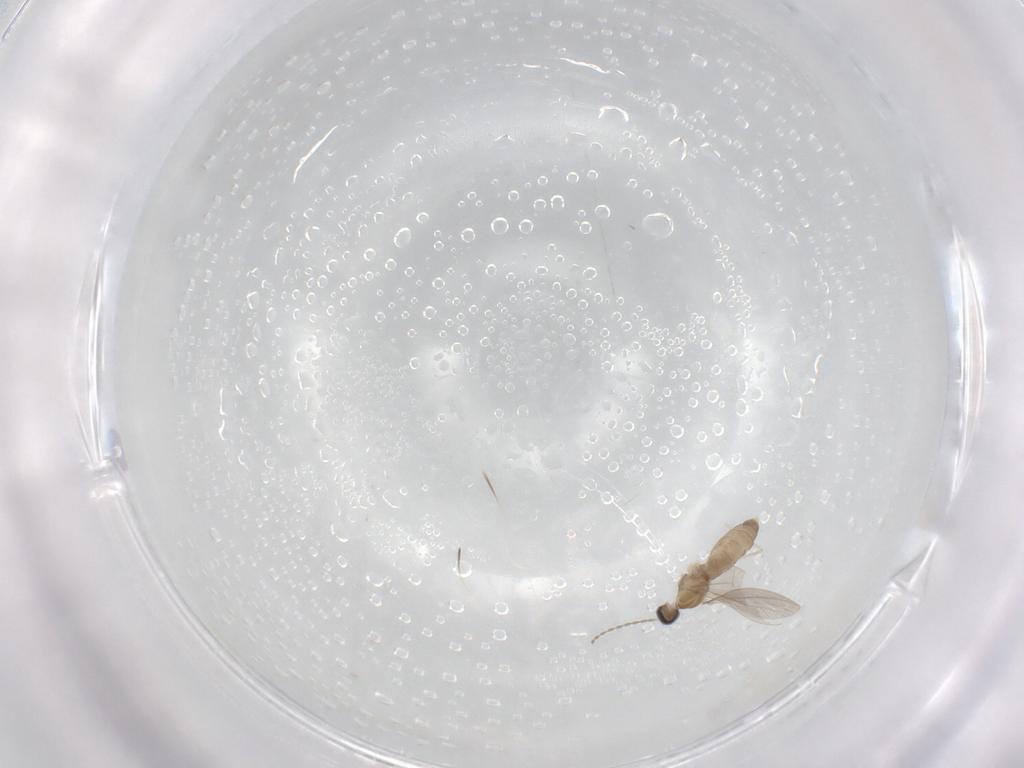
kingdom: Animalia
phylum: Arthropoda
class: Insecta
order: Diptera
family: Cecidomyiidae
